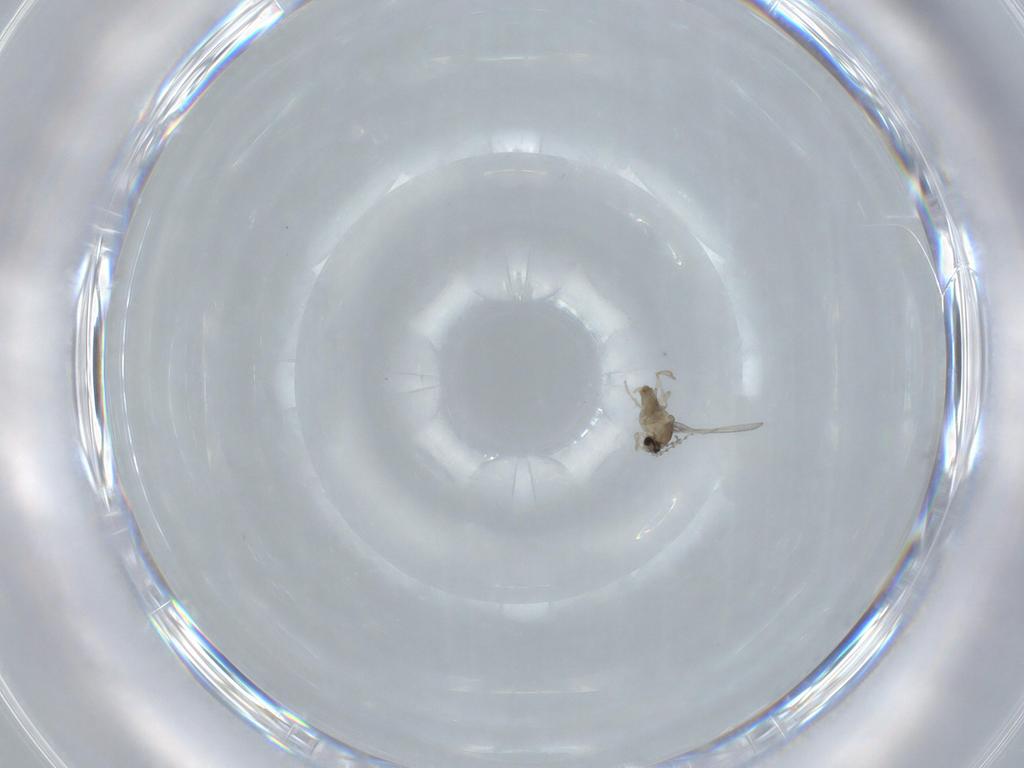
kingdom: Animalia
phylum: Arthropoda
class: Insecta
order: Diptera
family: Cecidomyiidae
